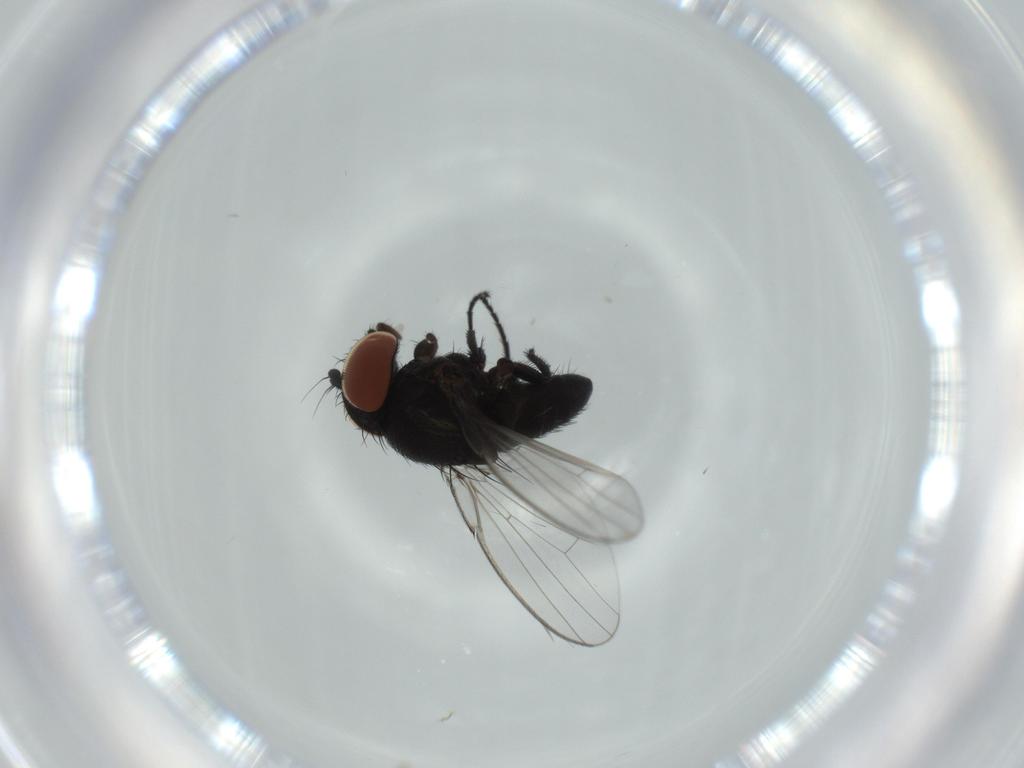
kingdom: Animalia
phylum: Arthropoda
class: Insecta
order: Diptera
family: Milichiidae
